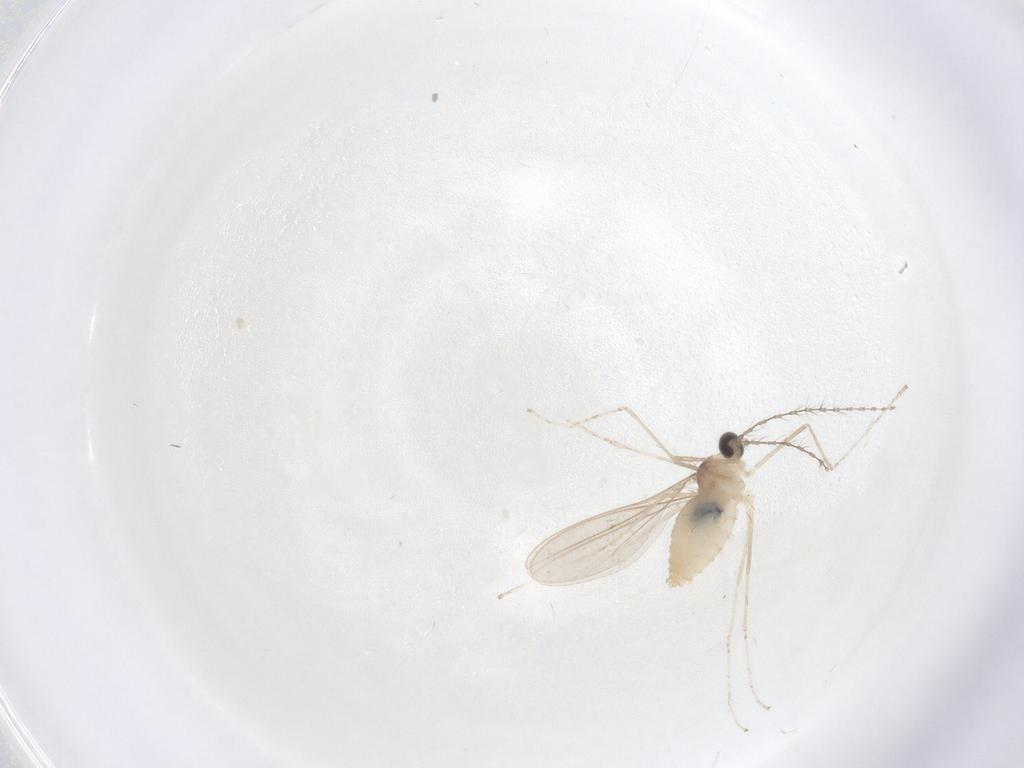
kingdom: Animalia
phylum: Arthropoda
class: Insecta
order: Diptera
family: Cecidomyiidae
